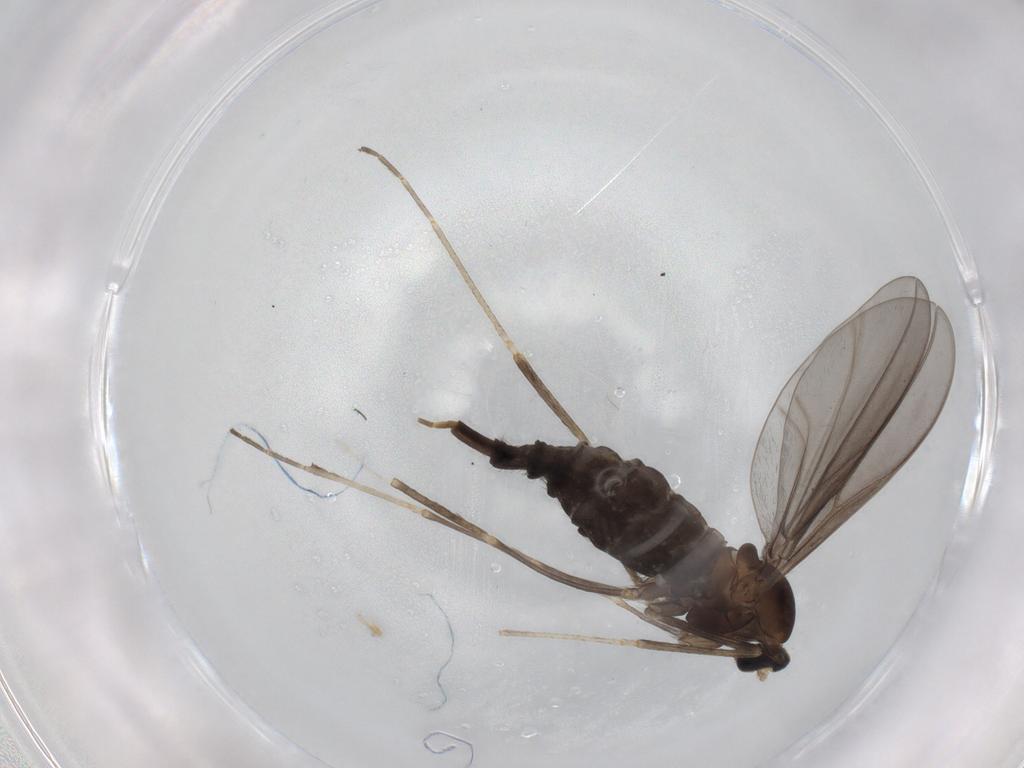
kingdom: Animalia
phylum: Arthropoda
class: Insecta
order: Diptera
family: Cecidomyiidae
